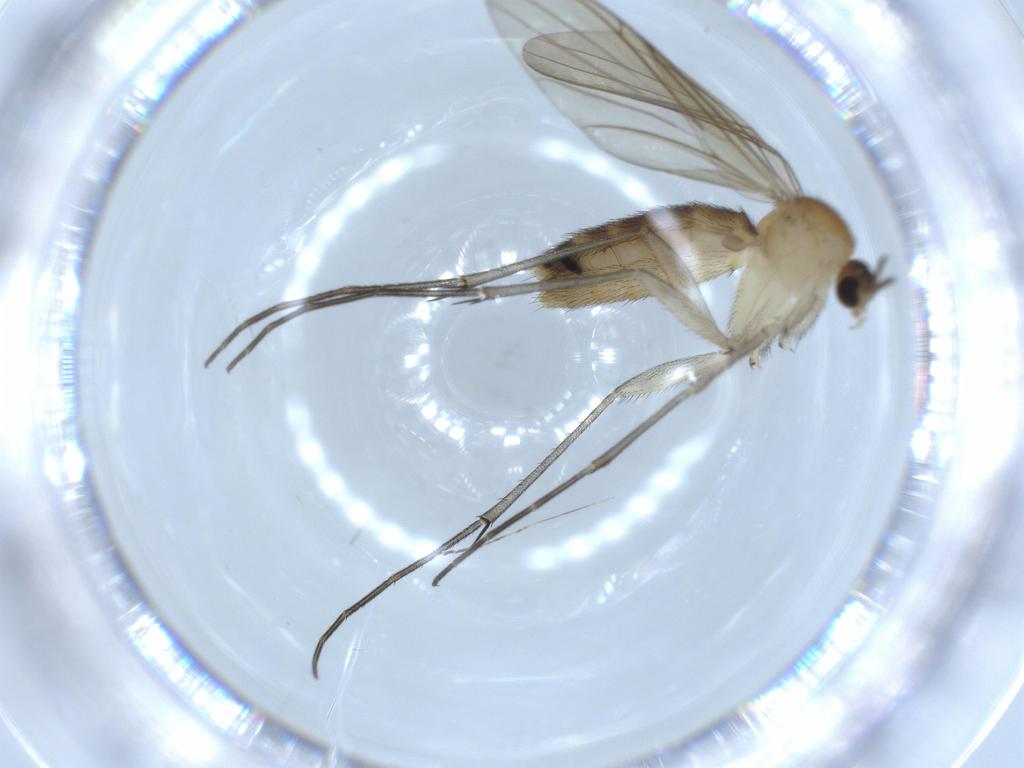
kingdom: Animalia
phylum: Arthropoda
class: Insecta
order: Diptera
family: Keroplatidae
